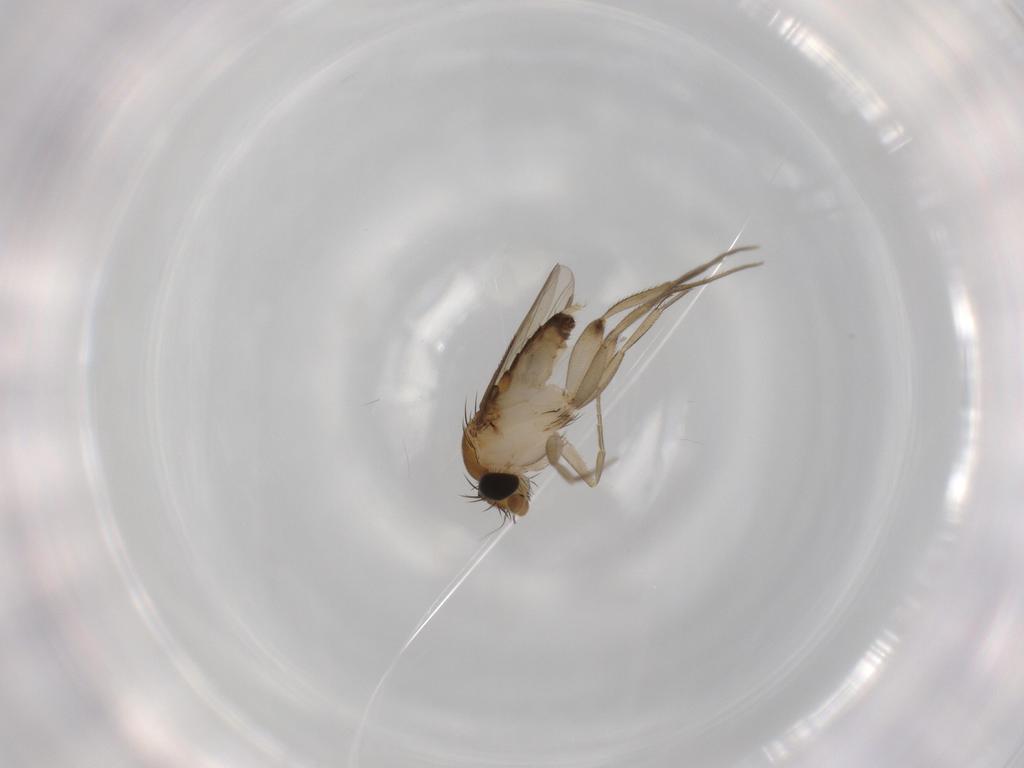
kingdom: Animalia
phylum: Arthropoda
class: Insecta
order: Diptera
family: Phoridae
